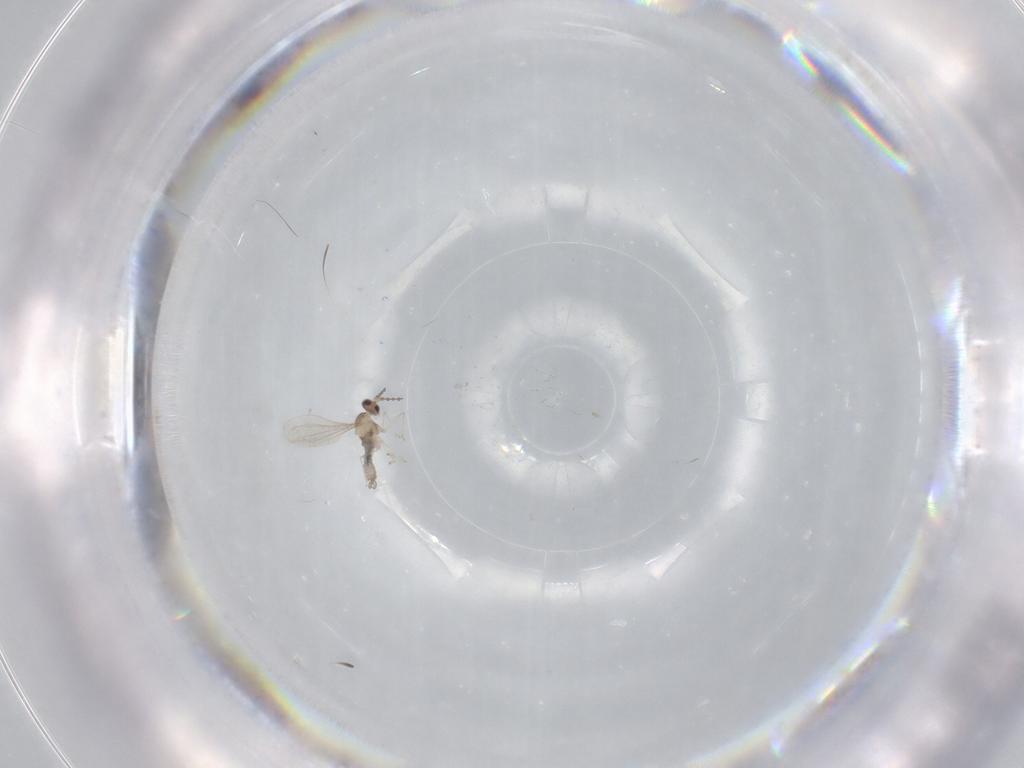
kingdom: Animalia
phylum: Arthropoda
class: Insecta
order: Diptera
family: Cecidomyiidae
